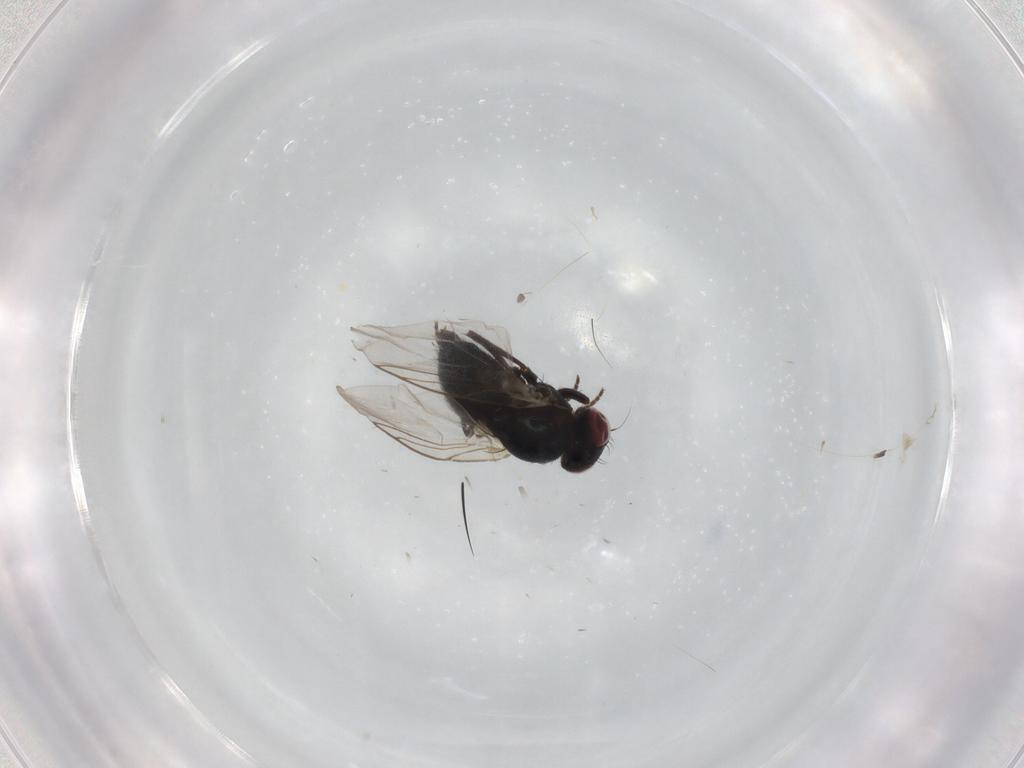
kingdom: Animalia
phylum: Arthropoda
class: Insecta
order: Diptera
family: Agromyzidae
